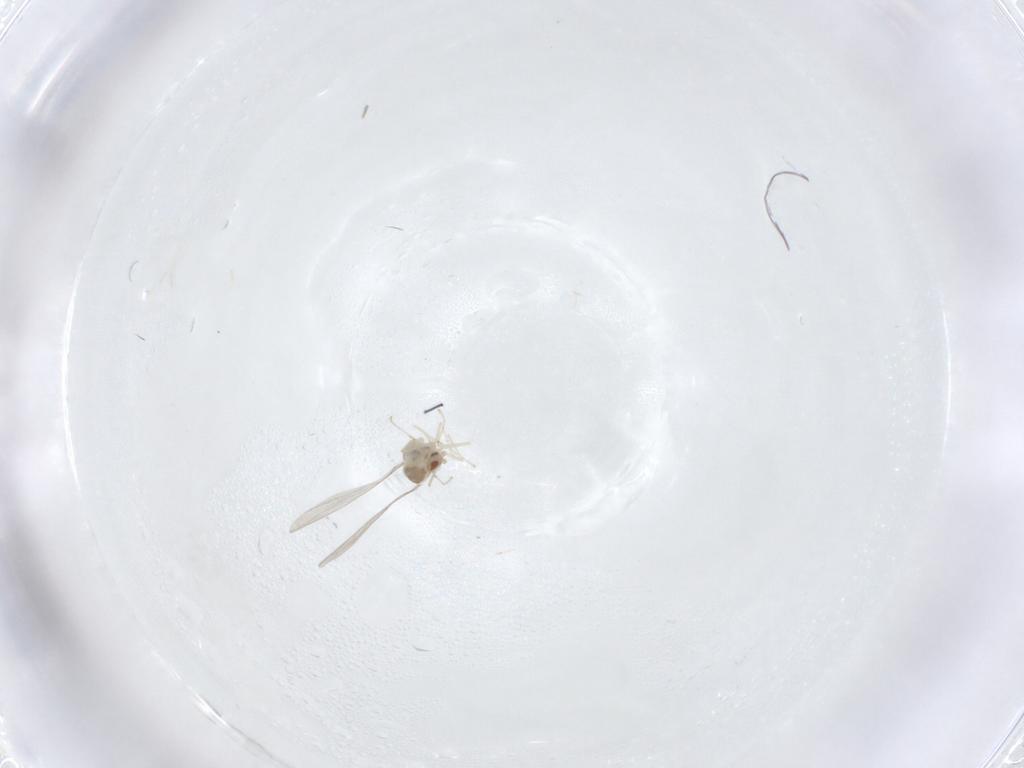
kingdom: Animalia
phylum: Arthropoda
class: Insecta
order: Diptera
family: Cecidomyiidae
